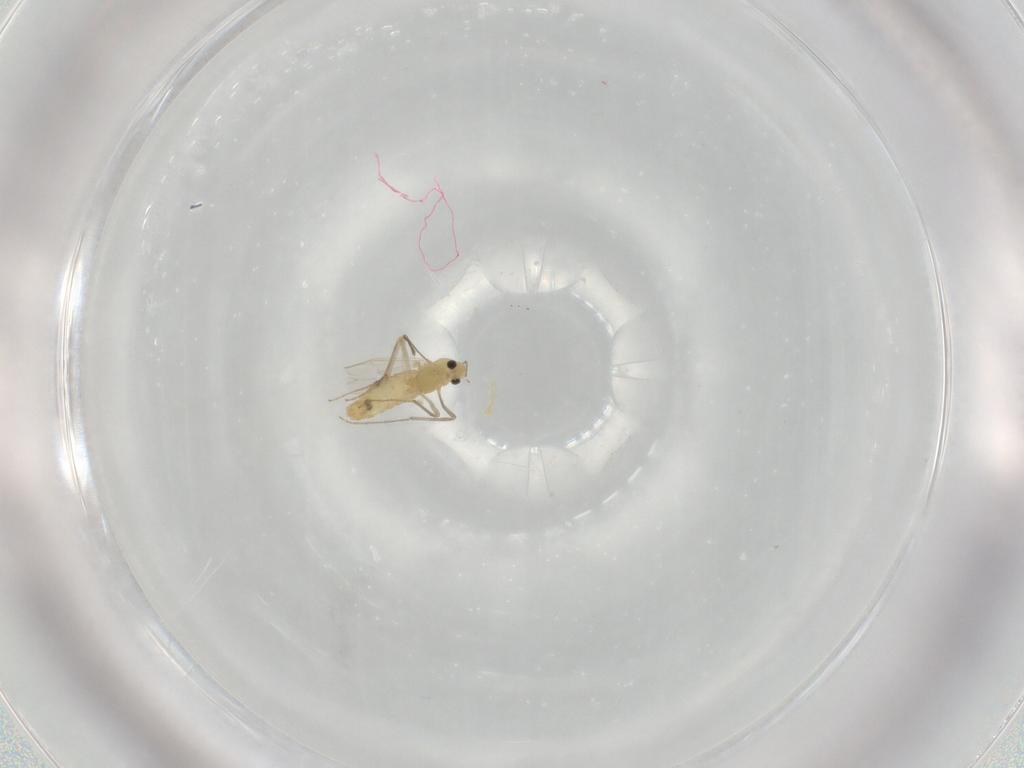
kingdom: Animalia
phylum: Arthropoda
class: Insecta
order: Diptera
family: Chironomidae
